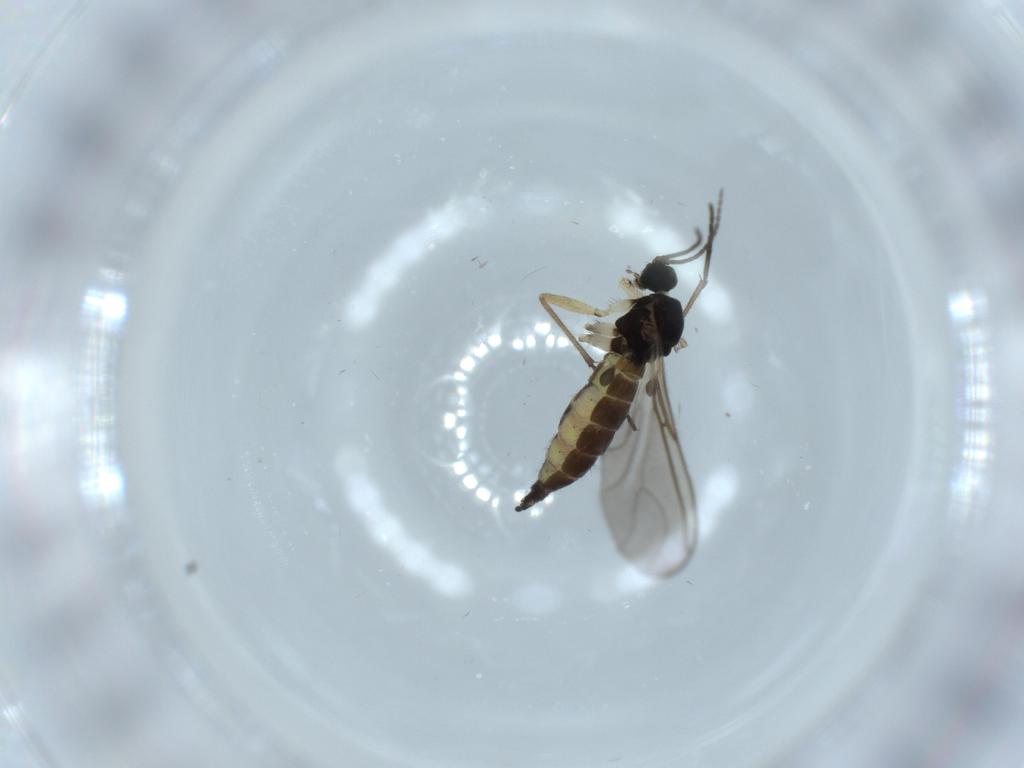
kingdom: Animalia
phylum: Arthropoda
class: Insecta
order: Diptera
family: Sciaridae
